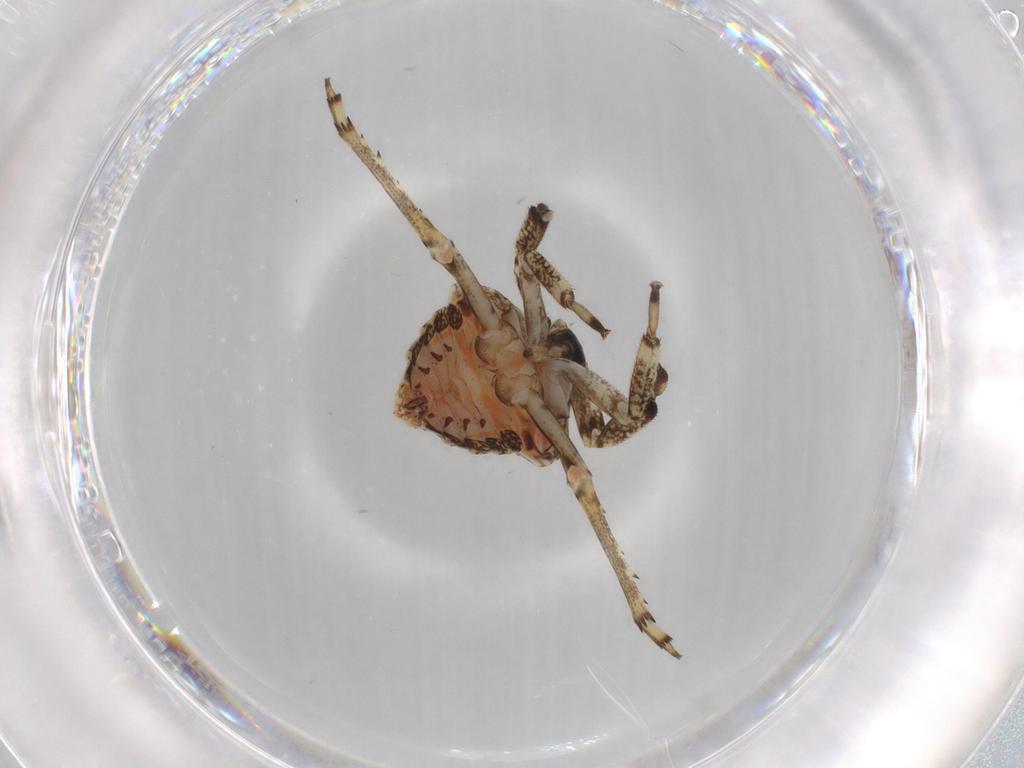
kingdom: Animalia
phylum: Arthropoda
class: Insecta
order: Hemiptera
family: Issidae
